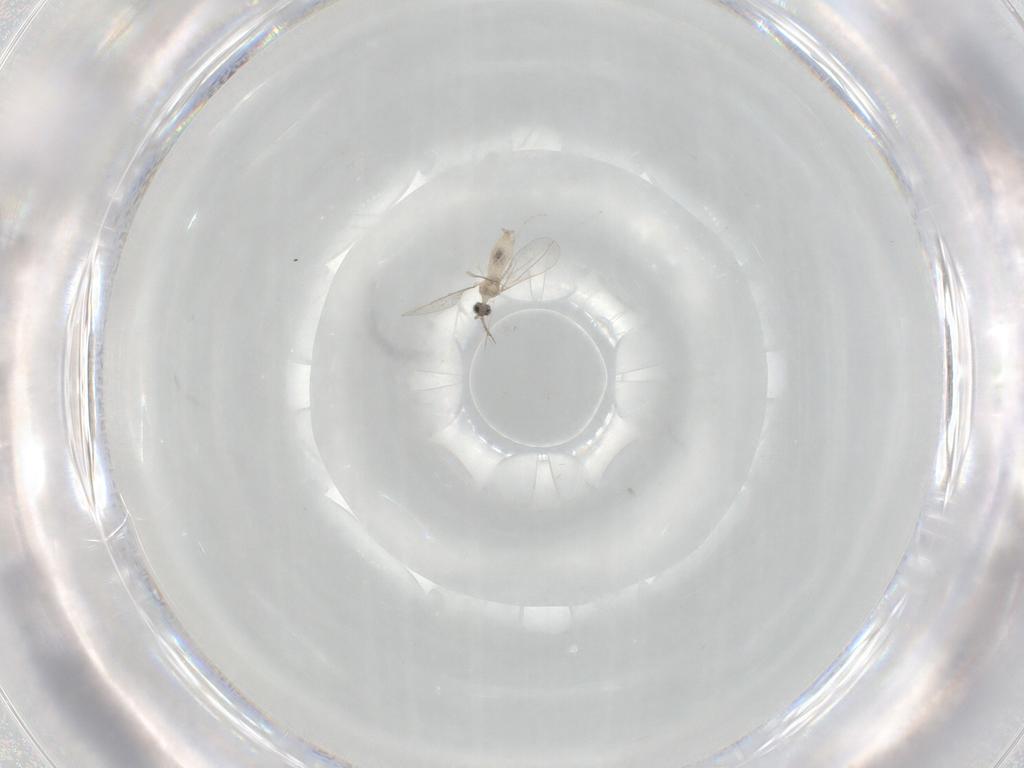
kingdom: Animalia
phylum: Arthropoda
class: Insecta
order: Diptera
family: Cecidomyiidae
